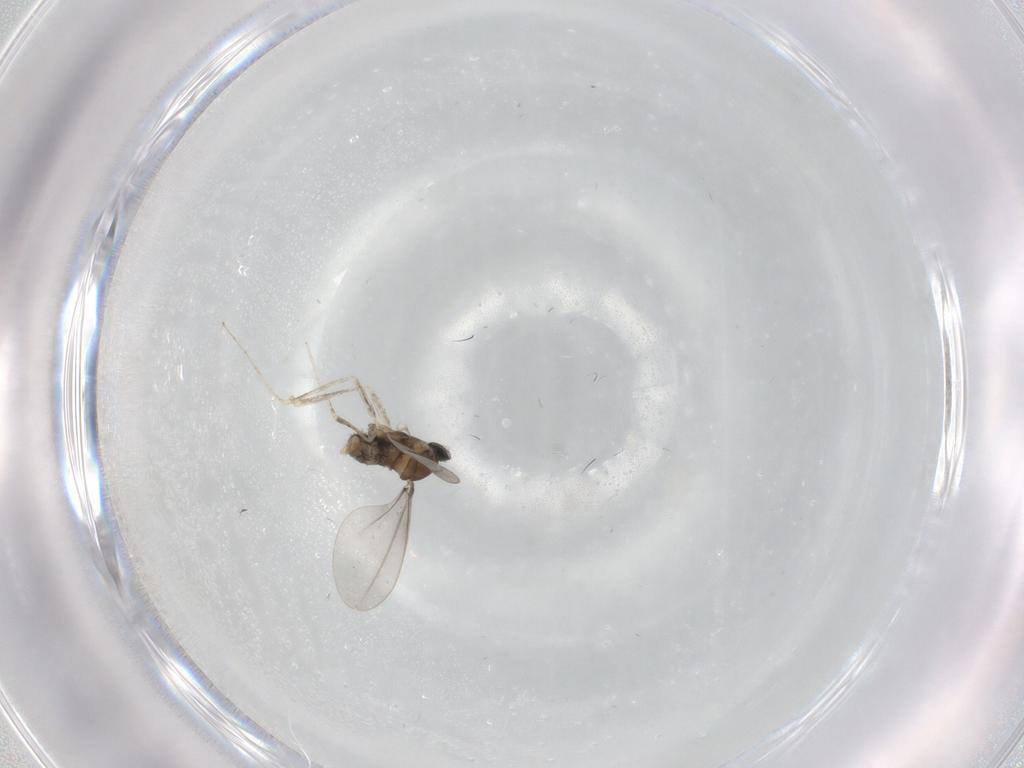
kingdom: Animalia
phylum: Arthropoda
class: Insecta
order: Diptera
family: Cecidomyiidae
